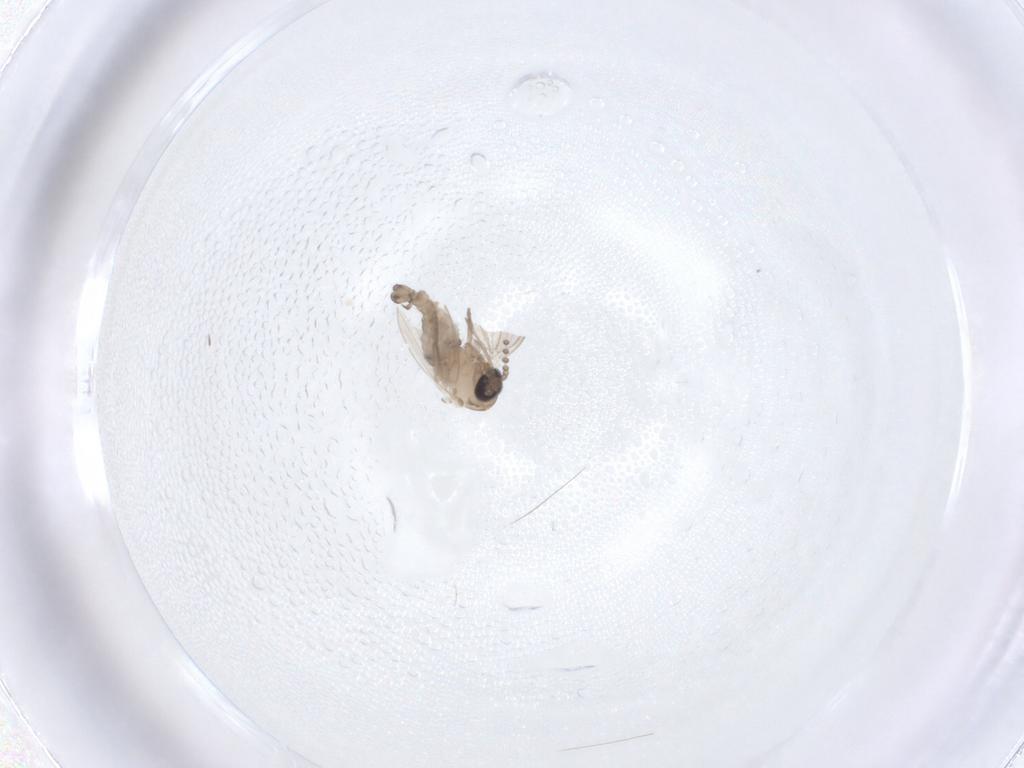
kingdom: Animalia
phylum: Arthropoda
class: Insecta
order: Diptera
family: Psychodidae
